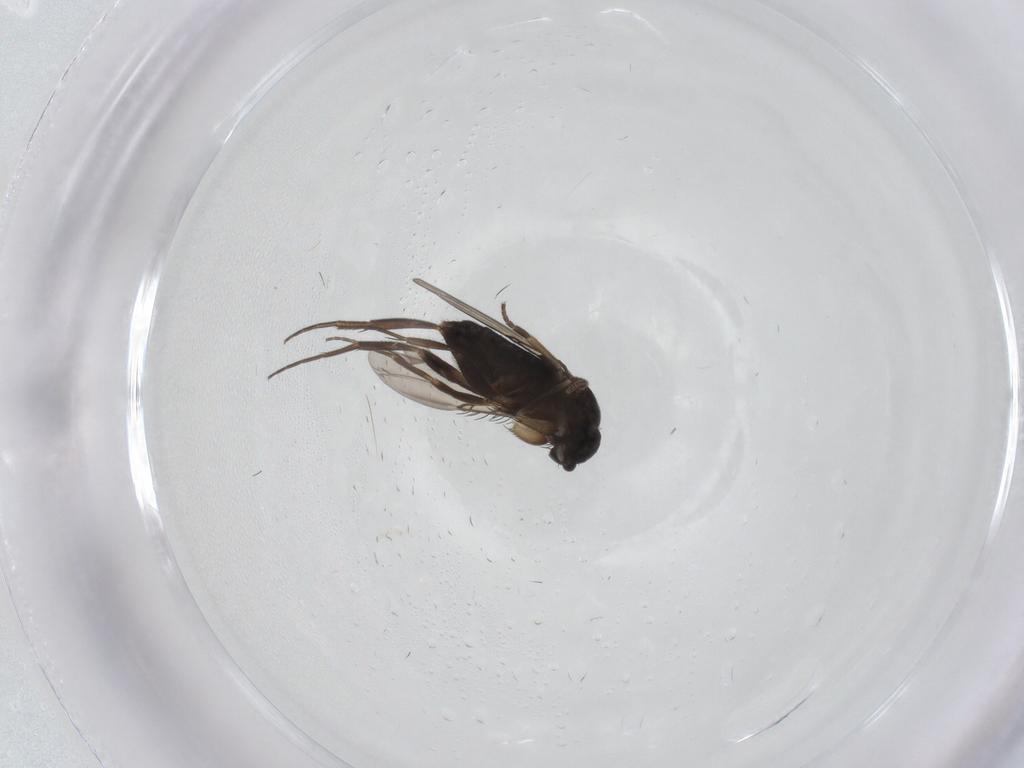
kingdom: Animalia
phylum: Arthropoda
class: Insecta
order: Diptera
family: Phoridae
